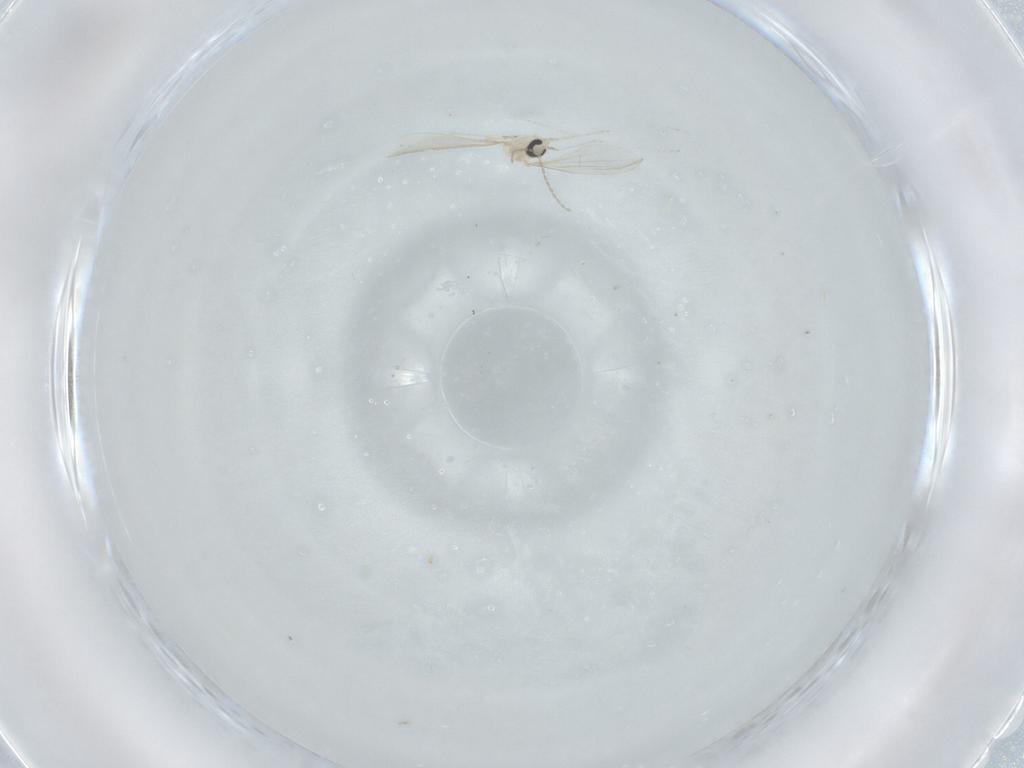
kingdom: Animalia
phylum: Arthropoda
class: Insecta
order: Diptera
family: Cecidomyiidae
